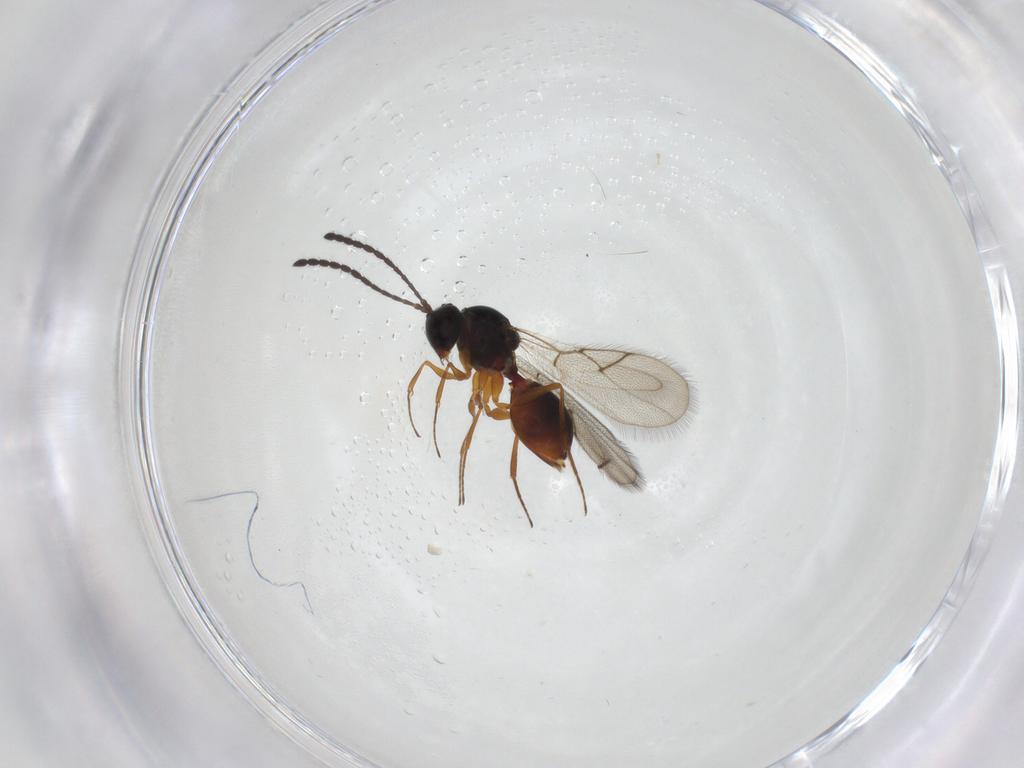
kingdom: Animalia
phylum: Arthropoda
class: Insecta
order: Hymenoptera
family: Figitidae
